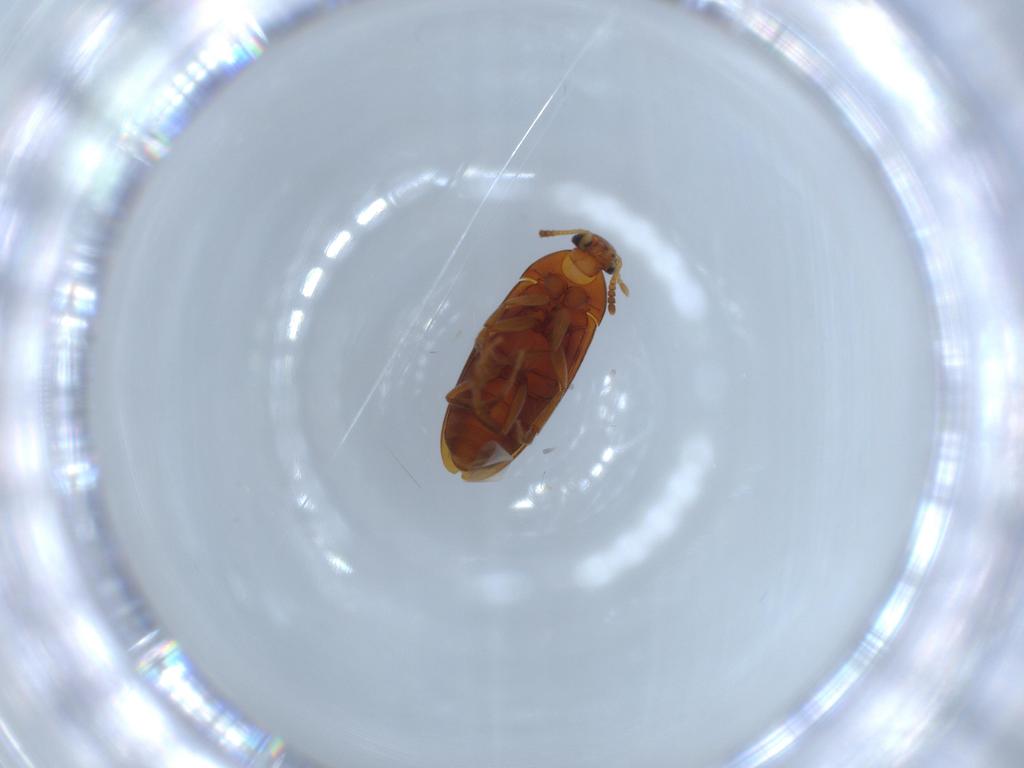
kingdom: Animalia
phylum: Arthropoda
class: Insecta
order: Coleoptera
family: Scraptiidae
